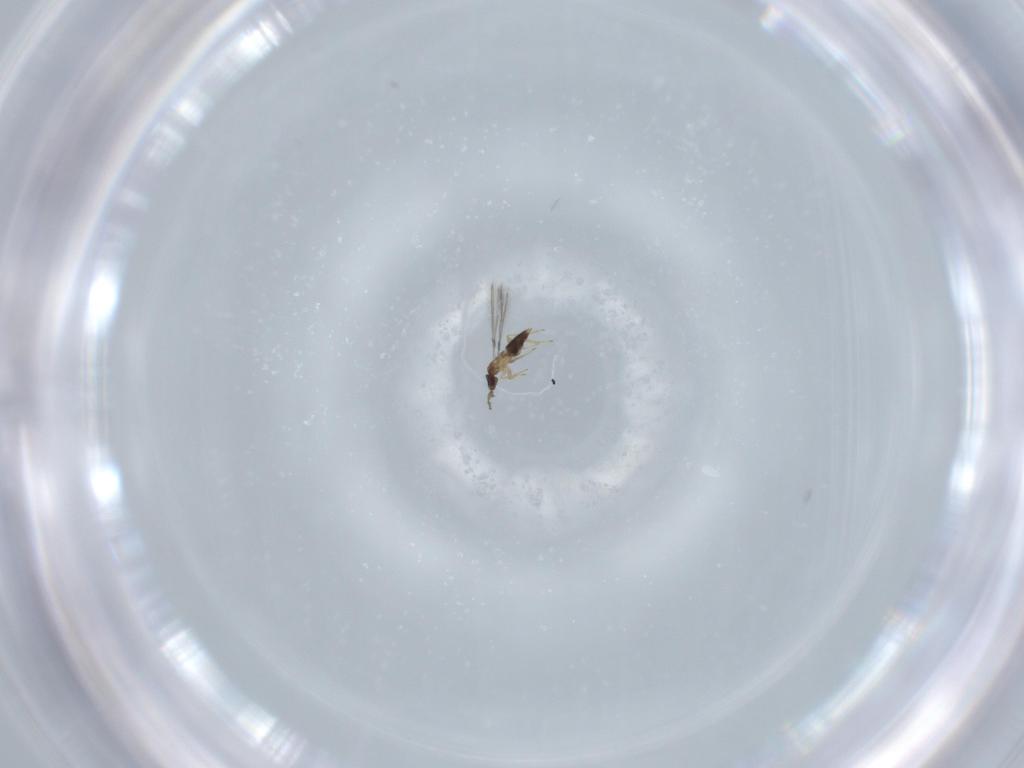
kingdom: Animalia
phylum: Arthropoda
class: Insecta
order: Hymenoptera
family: Mymaridae
